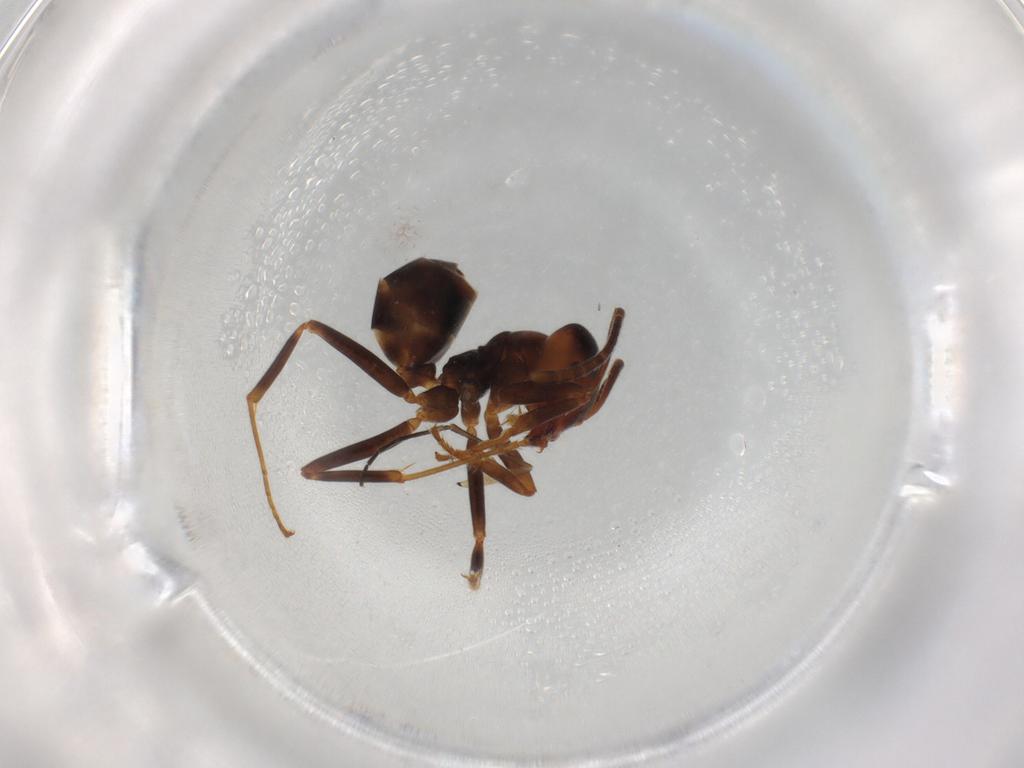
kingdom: Animalia
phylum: Arthropoda
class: Insecta
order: Hymenoptera
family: Formicidae
